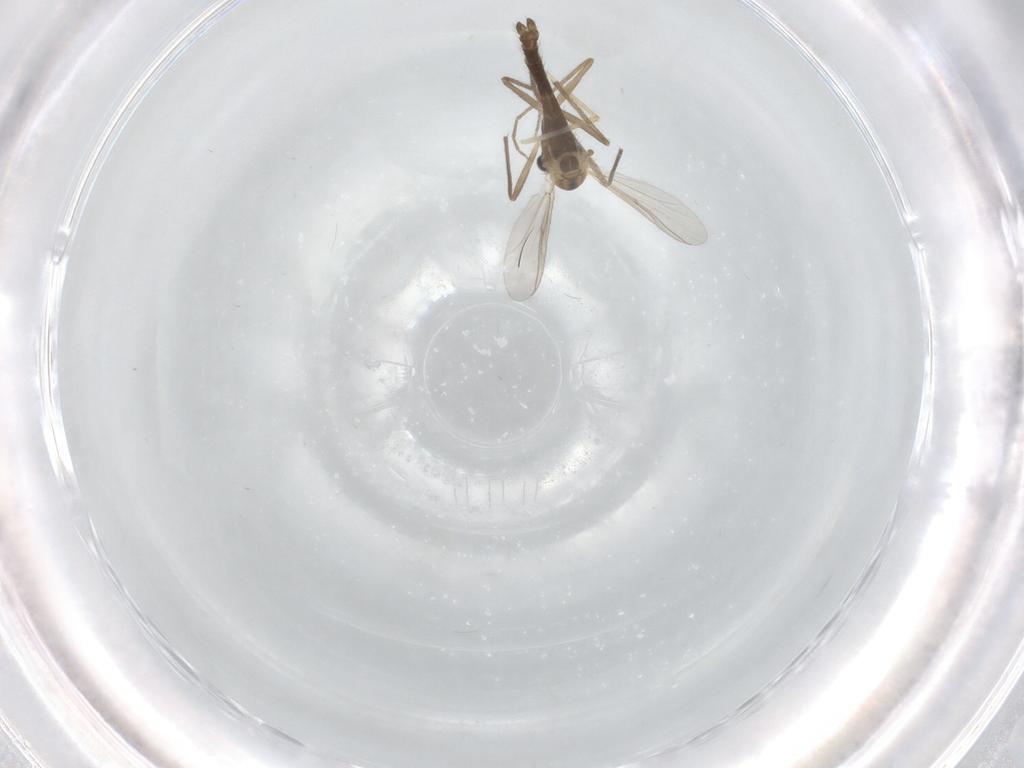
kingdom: Animalia
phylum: Arthropoda
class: Insecta
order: Diptera
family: Chironomidae
